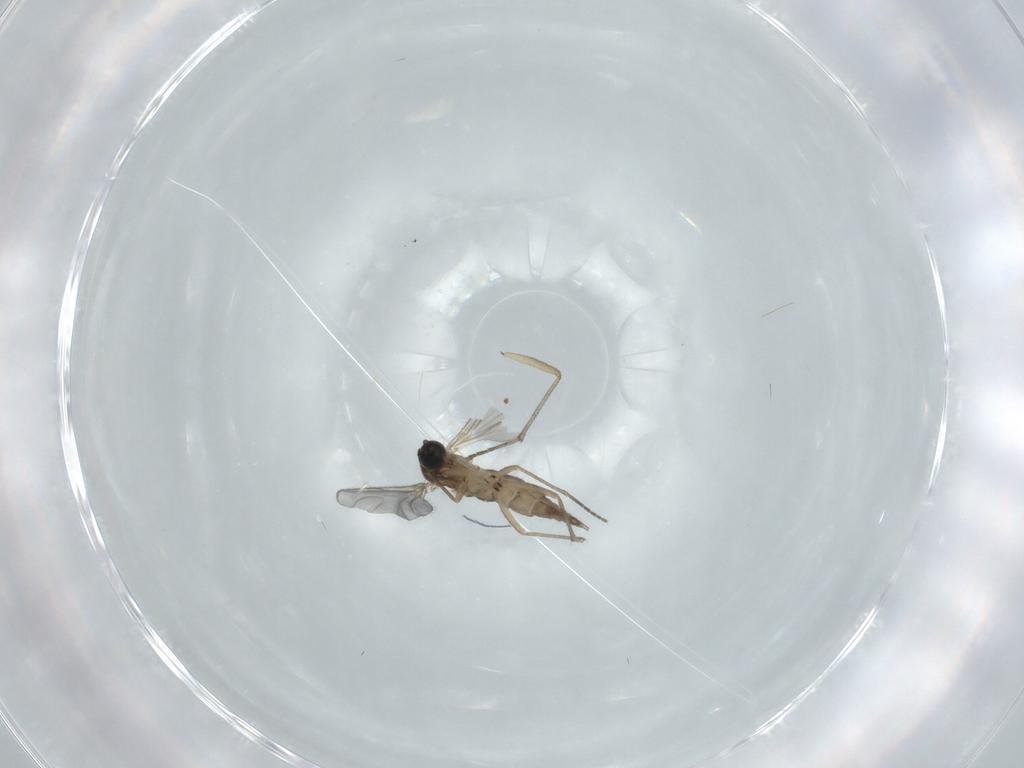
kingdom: Animalia
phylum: Arthropoda
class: Insecta
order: Diptera
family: Sciaridae
